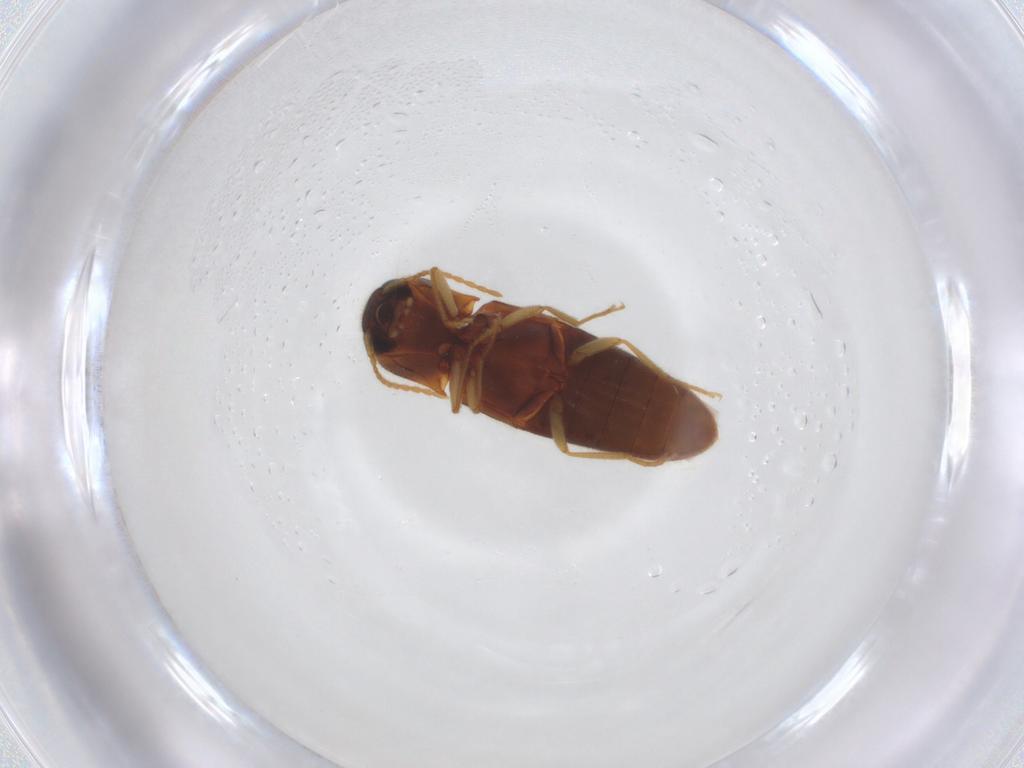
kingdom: Animalia
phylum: Arthropoda
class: Insecta
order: Coleoptera
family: Elateridae
